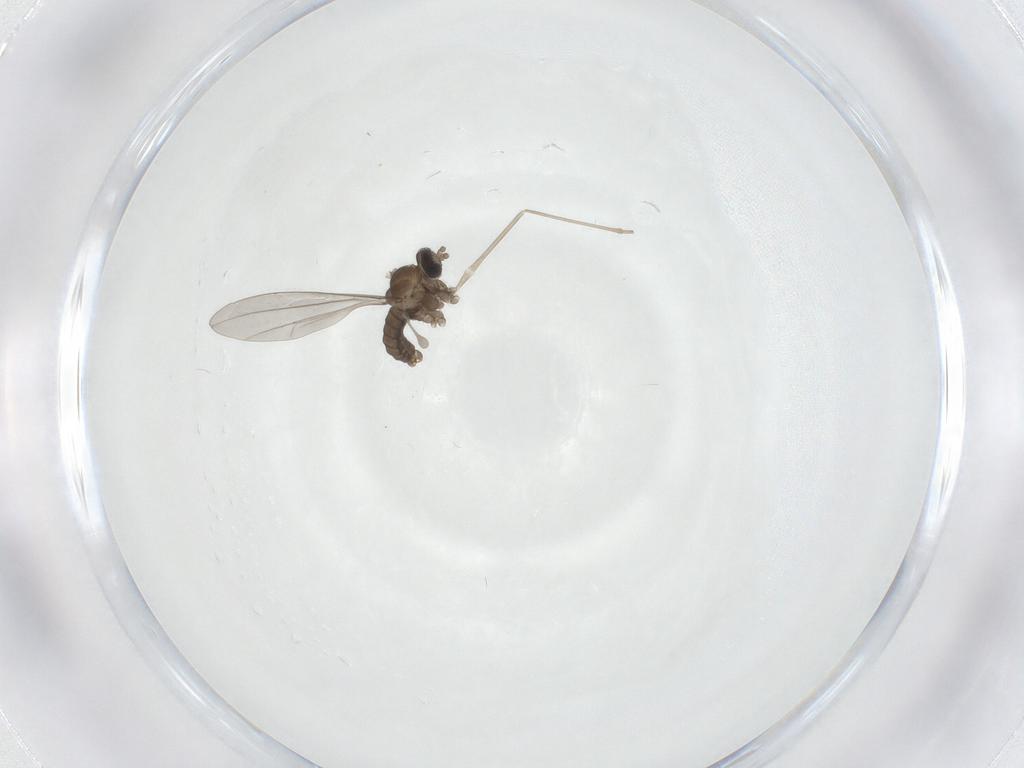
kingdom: Animalia
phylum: Arthropoda
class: Insecta
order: Diptera
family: Cecidomyiidae
